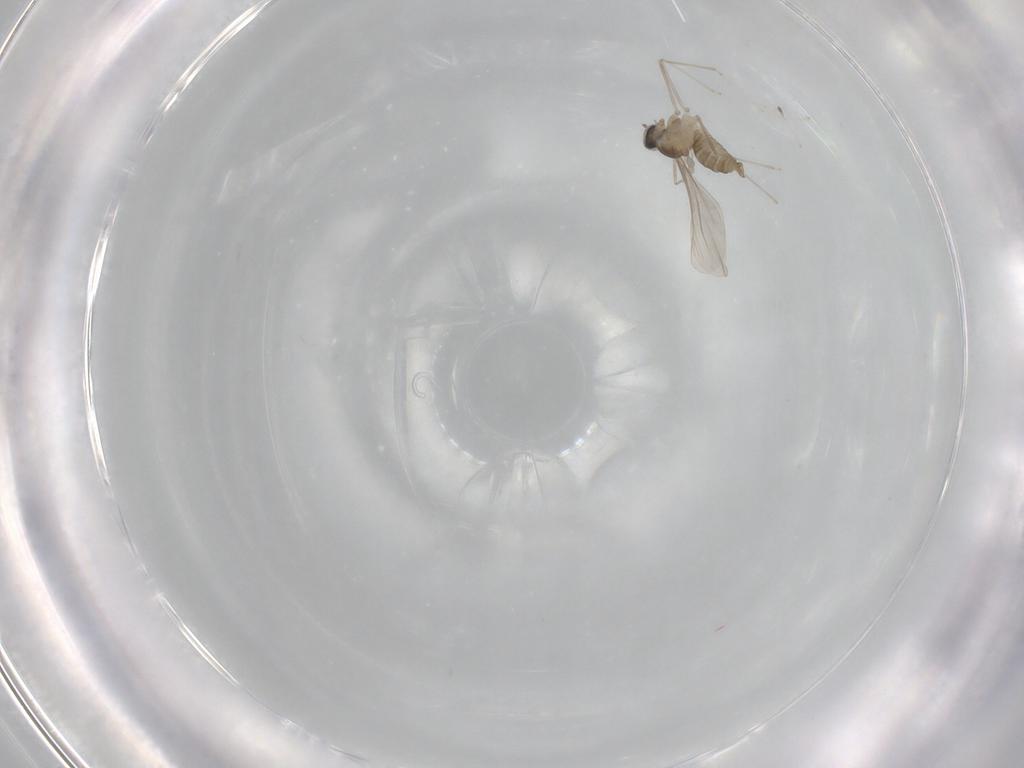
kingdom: Animalia
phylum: Arthropoda
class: Insecta
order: Diptera
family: Cecidomyiidae
